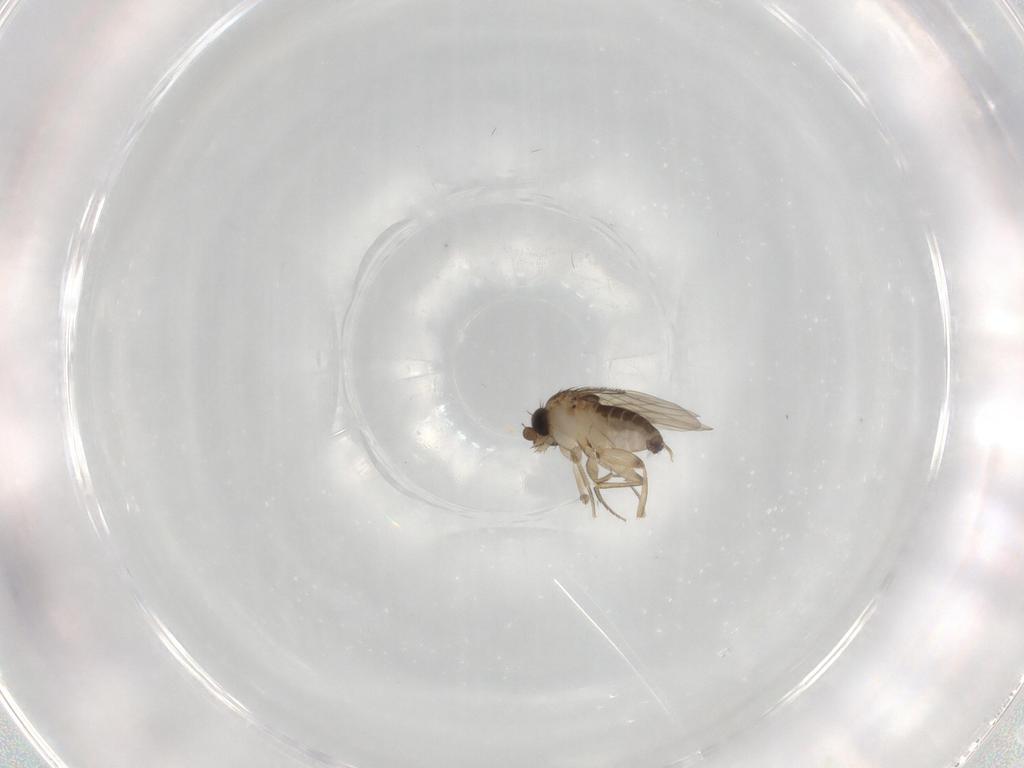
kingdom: Animalia
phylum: Arthropoda
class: Insecta
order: Diptera
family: Phoridae
